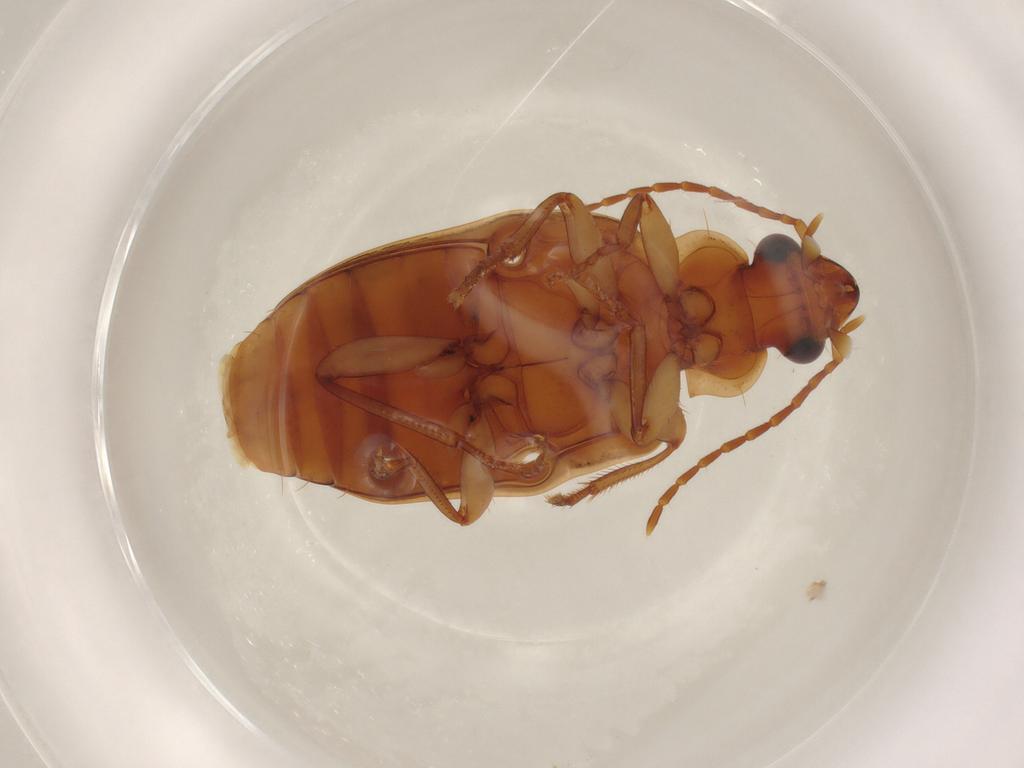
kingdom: Animalia
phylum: Arthropoda
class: Insecta
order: Coleoptera
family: Carabidae
